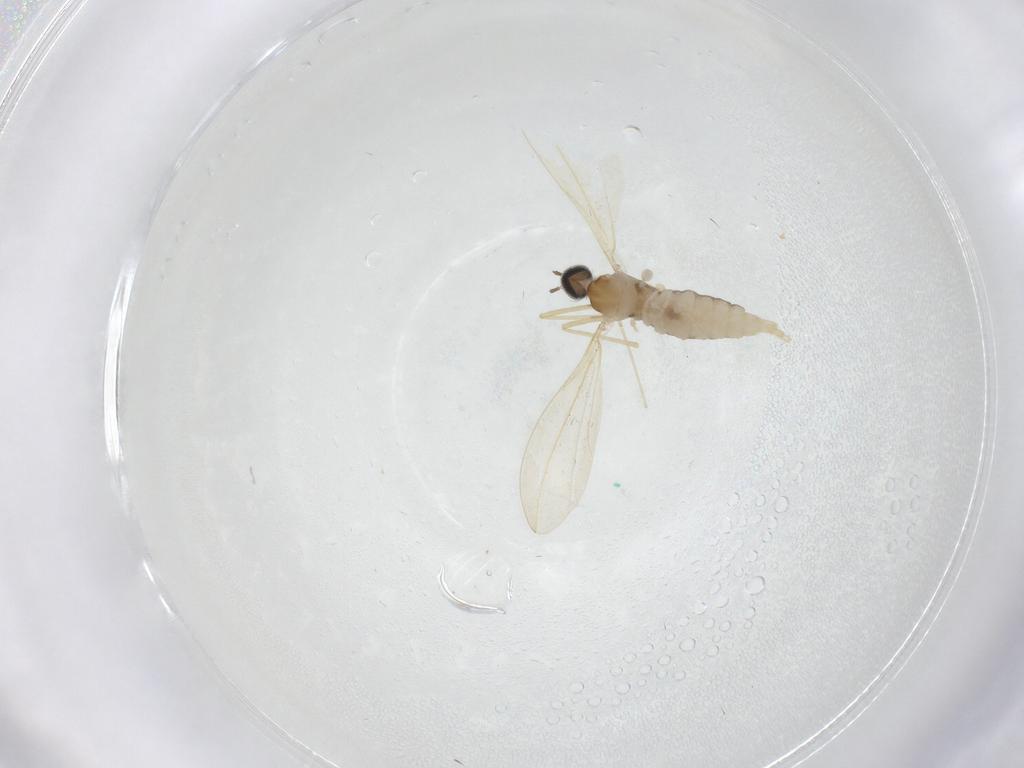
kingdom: Animalia
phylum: Arthropoda
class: Insecta
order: Diptera
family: Cecidomyiidae
